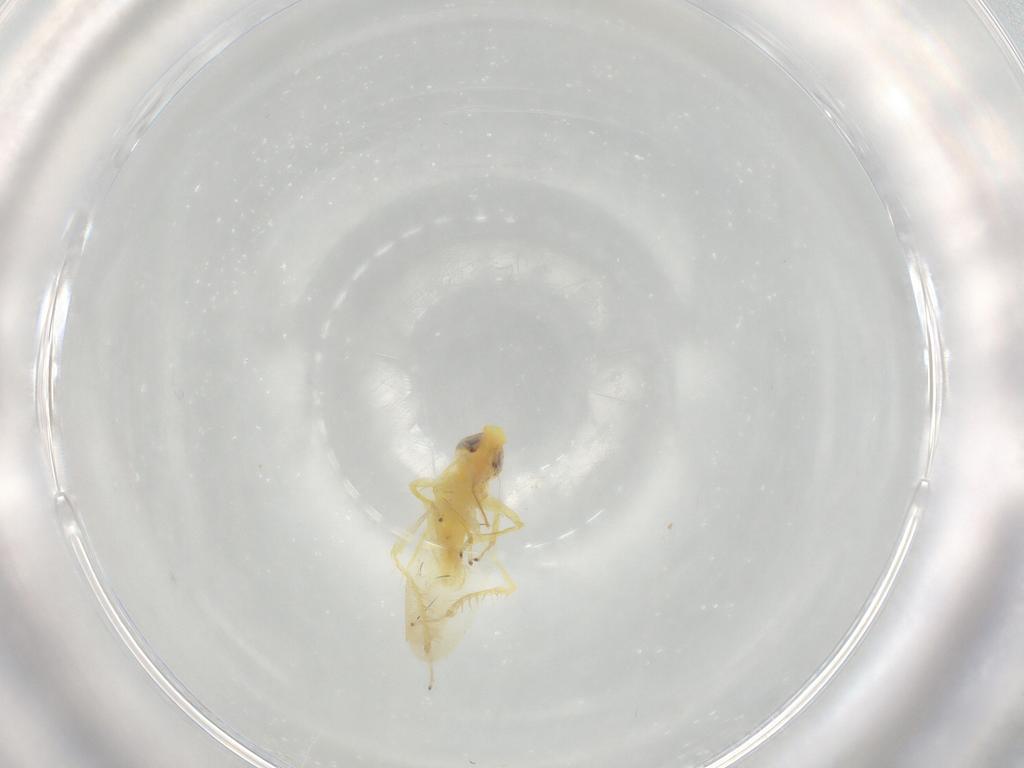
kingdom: Animalia
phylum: Arthropoda
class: Insecta
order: Hemiptera
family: Cicadellidae
